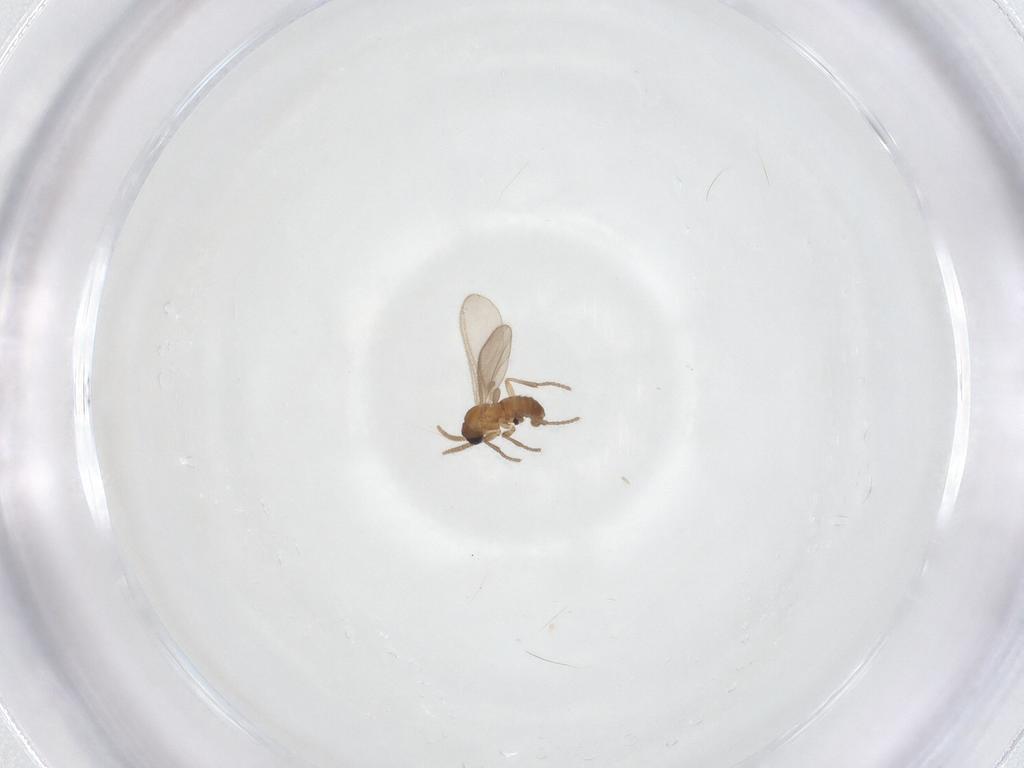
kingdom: Animalia
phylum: Arthropoda
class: Insecta
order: Diptera
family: Sciaridae
